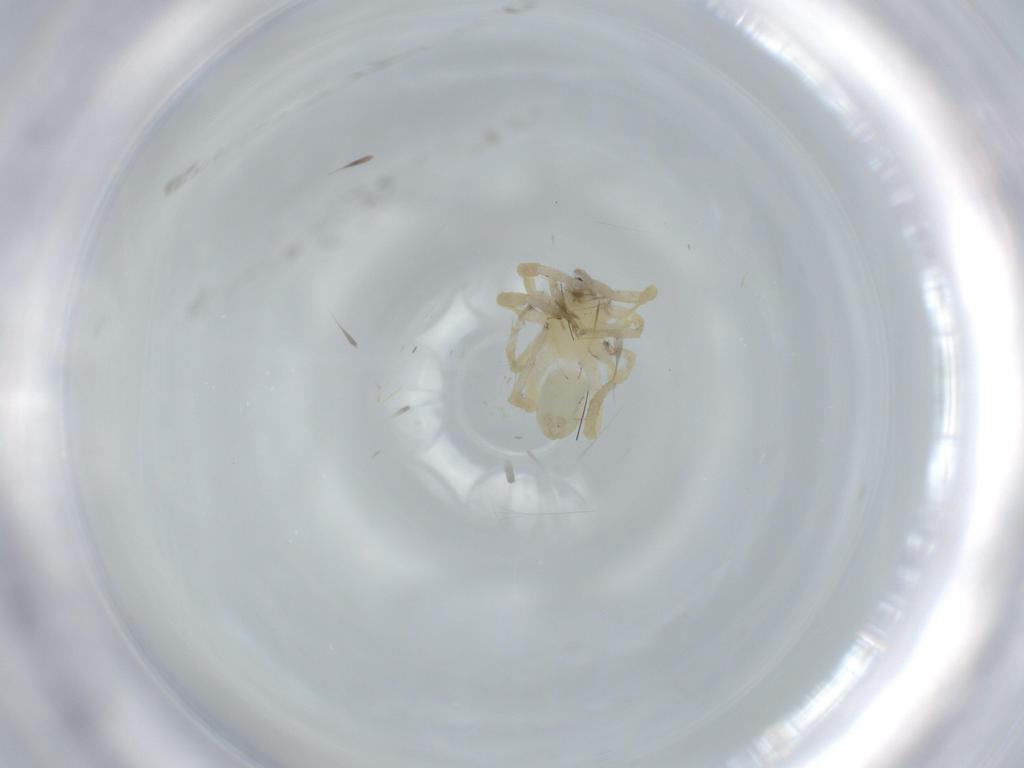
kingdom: Animalia
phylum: Arthropoda
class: Arachnida
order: Araneae
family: Anyphaenidae
